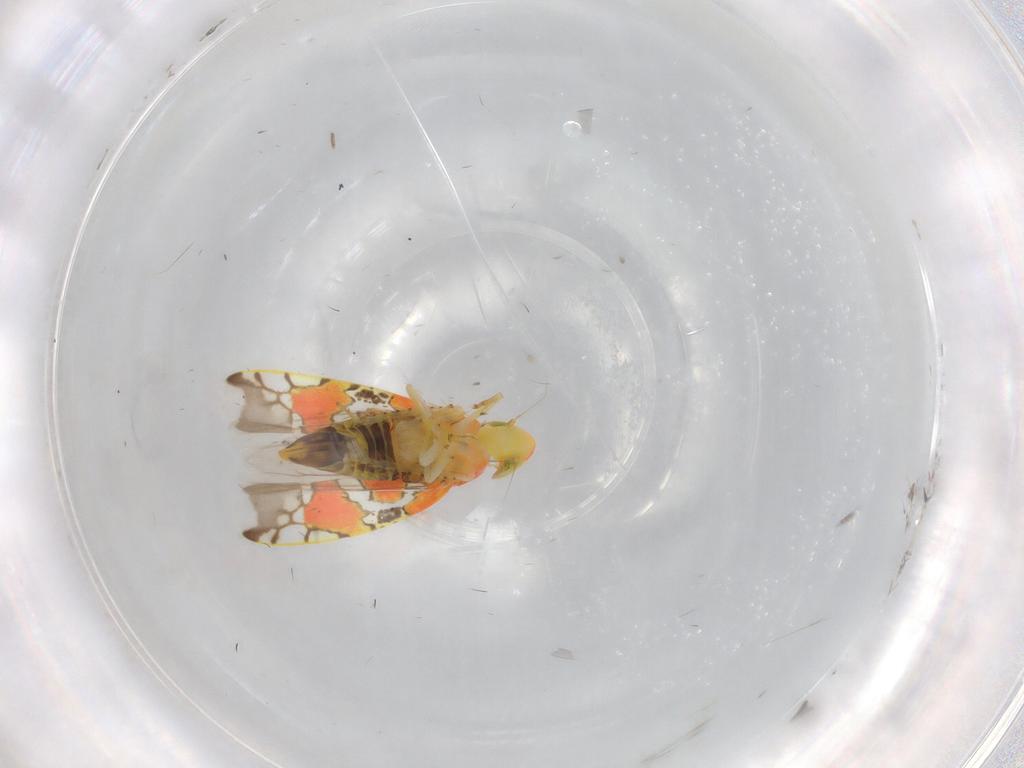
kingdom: Animalia
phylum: Arthropoda
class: Insecta
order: Hemiptera
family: Cicadellidae
